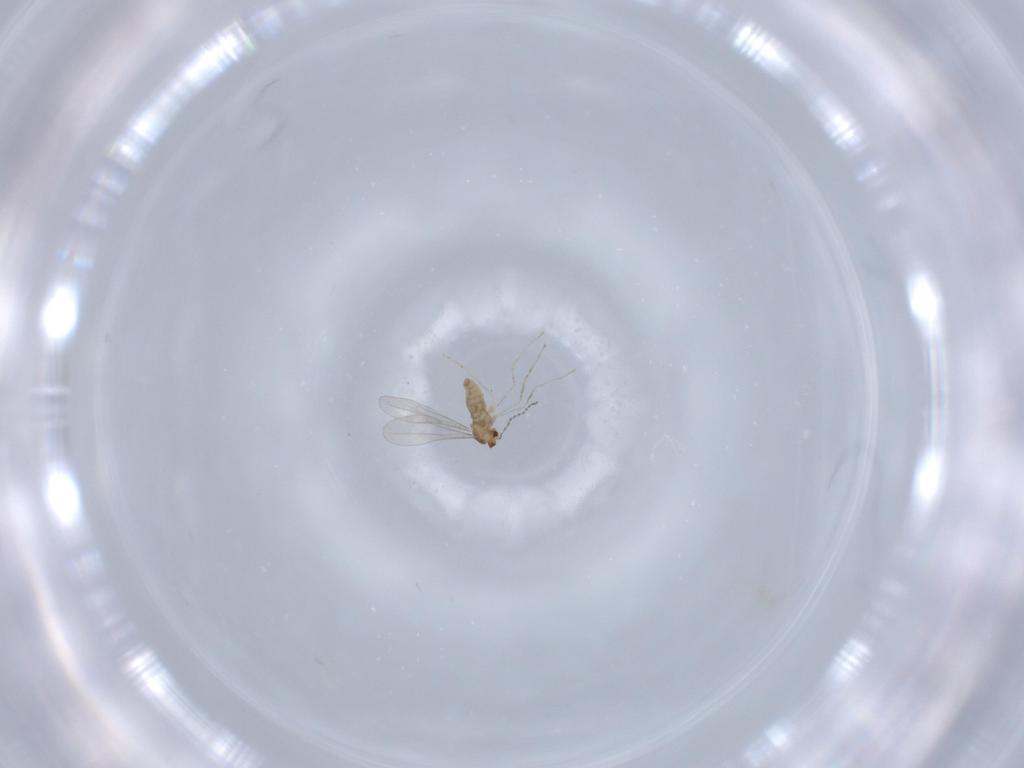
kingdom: Animalia
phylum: Arthropoda
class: Insecta
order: Diptera
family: Cecidomyiidae
